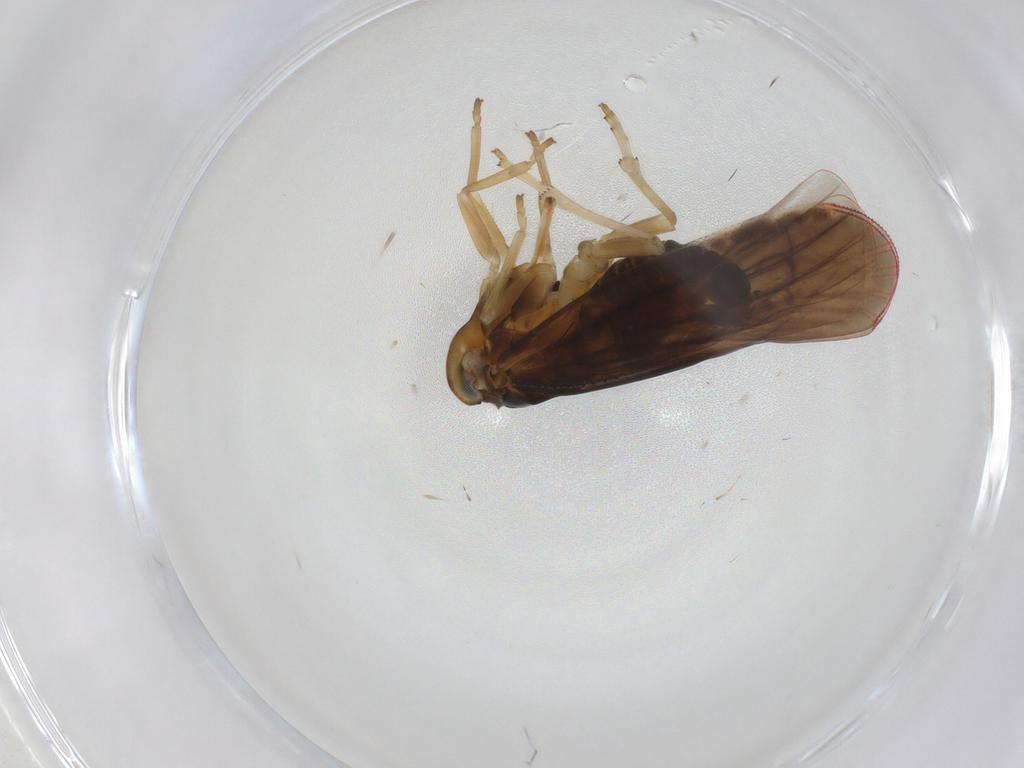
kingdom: Animalia
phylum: Arthropoda
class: Insecta
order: Hemiptera
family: Derbidae
